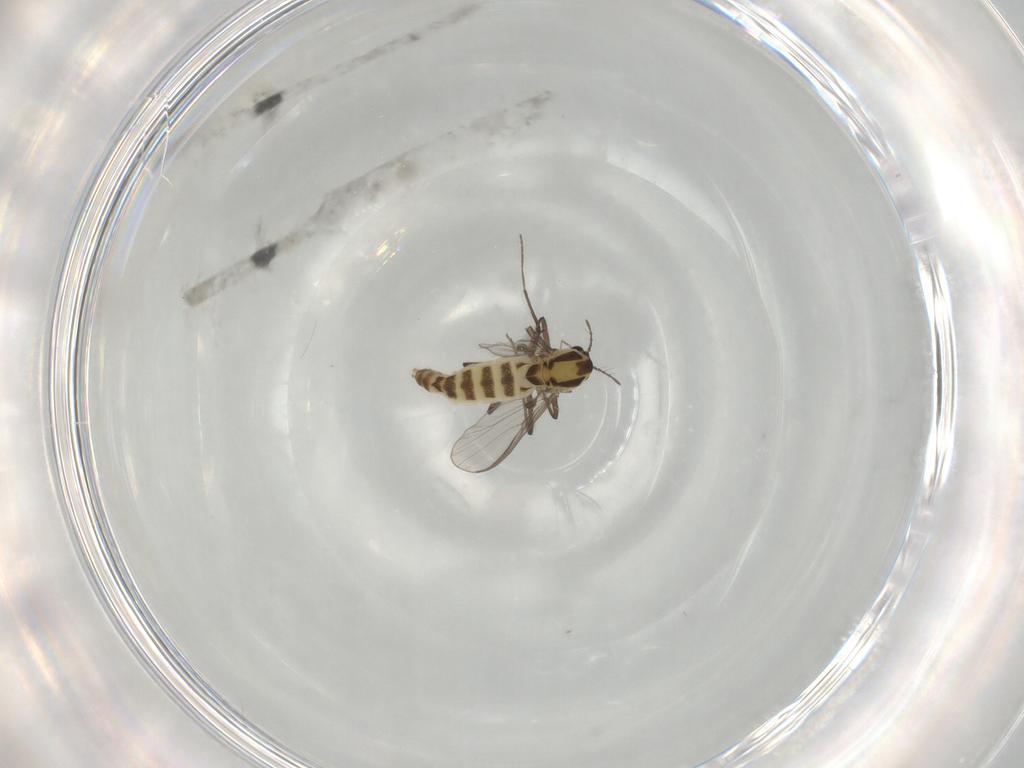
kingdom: Animalia
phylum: Arthropoda
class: Insecta
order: Diptera
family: Chironomidae
